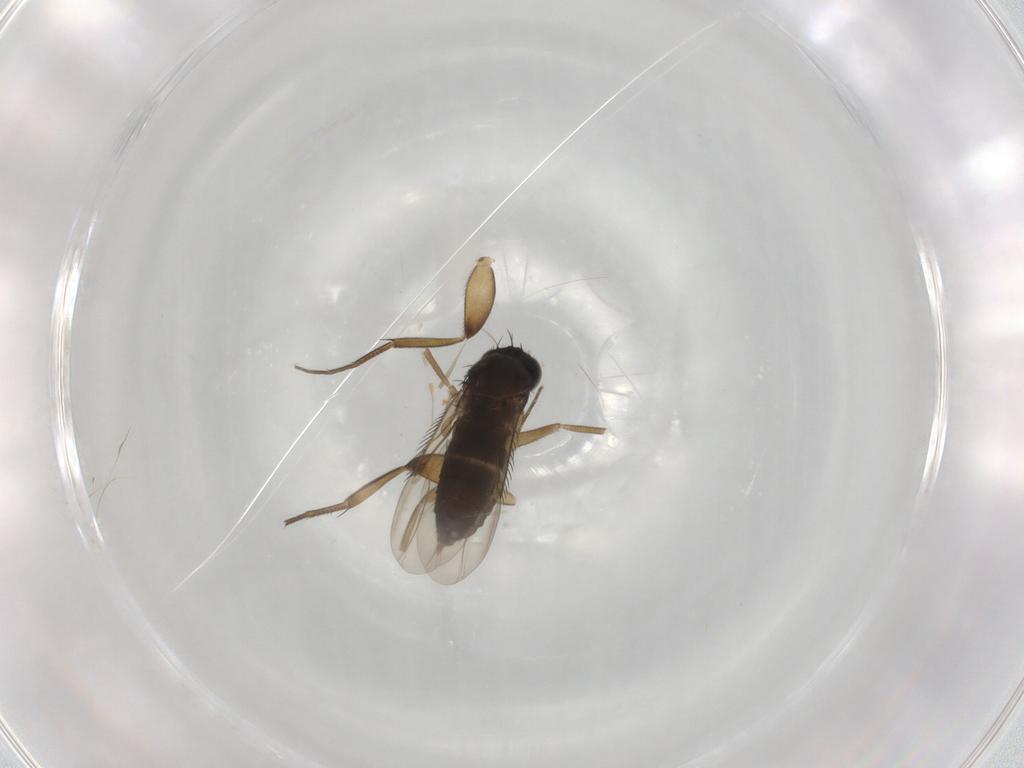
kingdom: Animalia
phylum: Arthropoda
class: Insecta
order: Diptera
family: Phoridae
